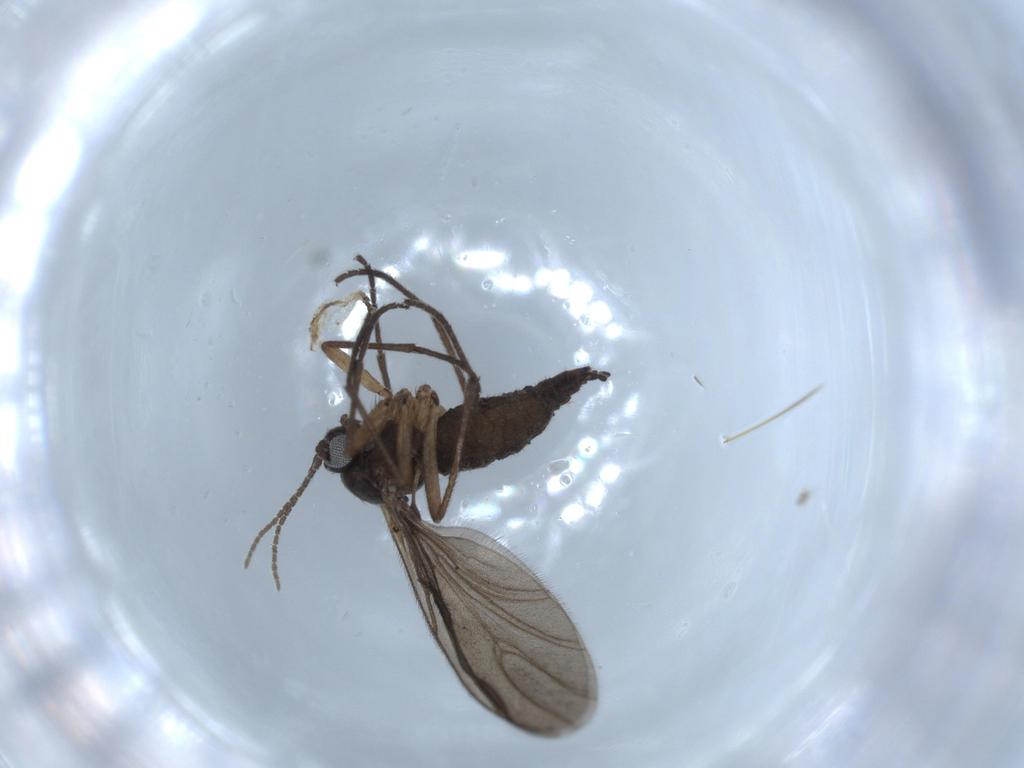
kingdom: Animalia
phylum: Arthropoda
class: Insecta
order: Diptera
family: Sciaridae
